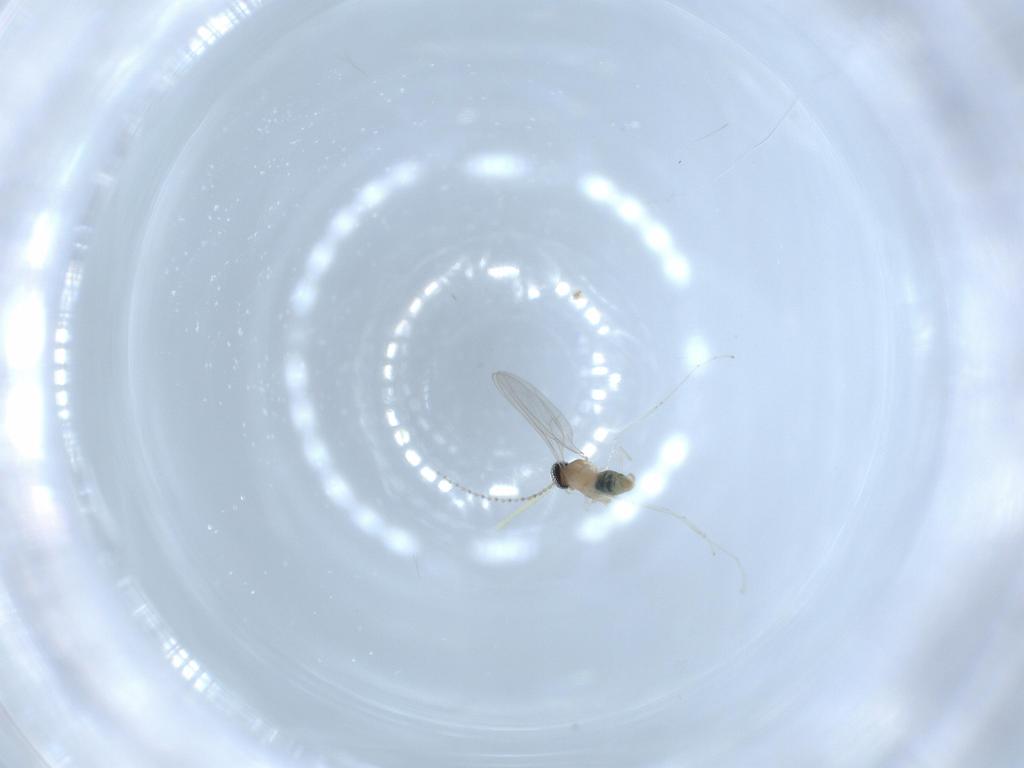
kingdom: Animalia
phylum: Arthropoda
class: Insecta
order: Diptera
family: Cecidomyiidae
